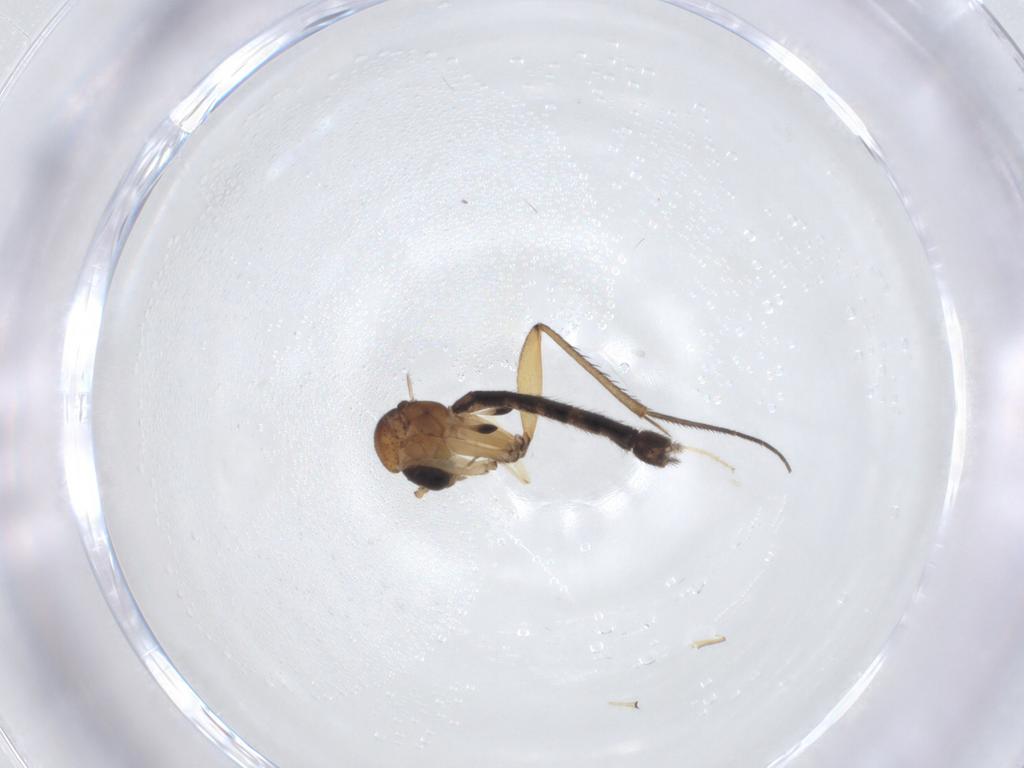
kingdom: Animalia
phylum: Arthropoda
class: Insecta
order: Diptera
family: Mycetophilidae
